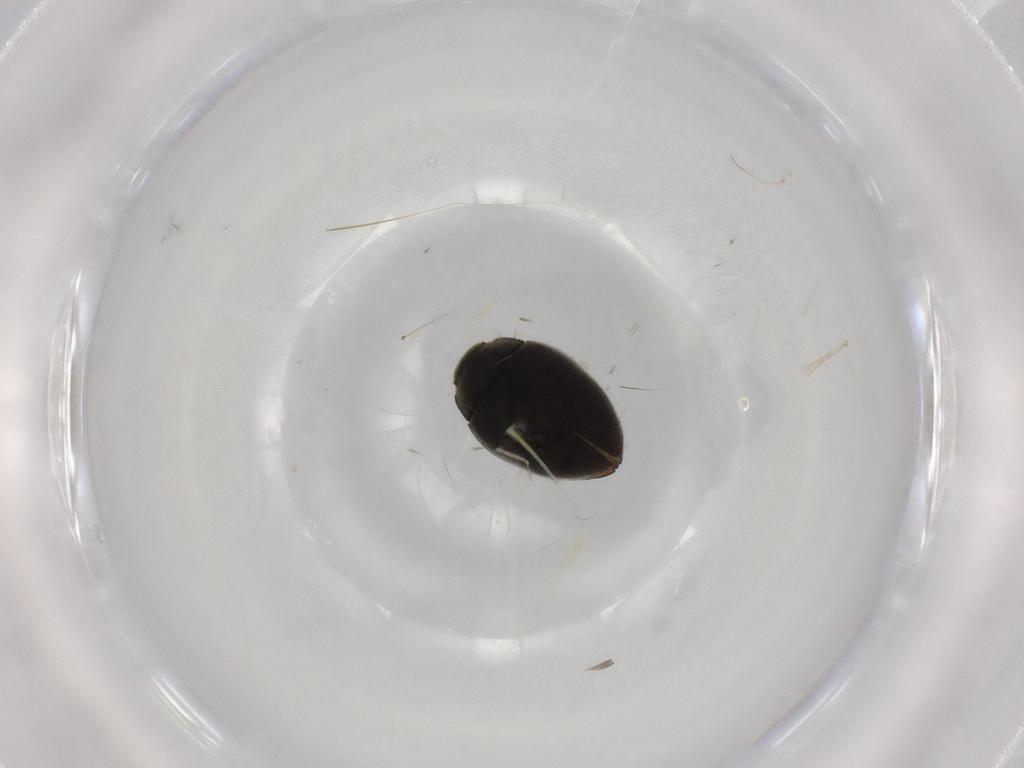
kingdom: Animalia
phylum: Arthropoda
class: Insecta
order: Coleoptera
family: Limnichidae
